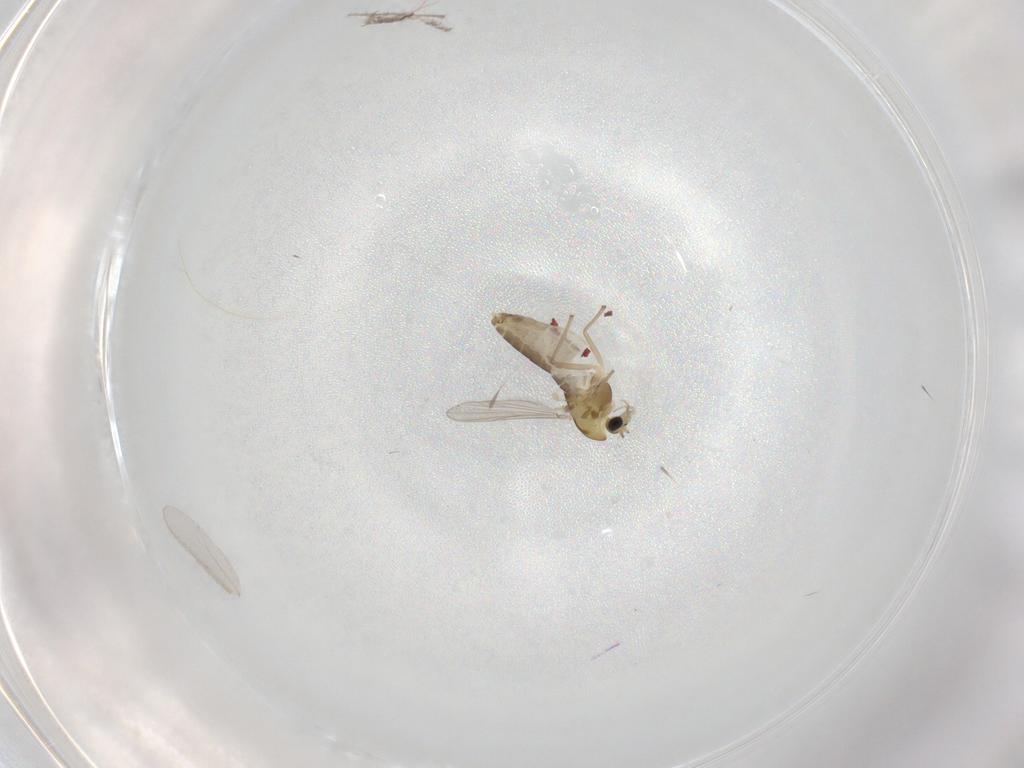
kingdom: Animalia
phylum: Arthropoda
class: Insecta
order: Diptera
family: Chironomidae
